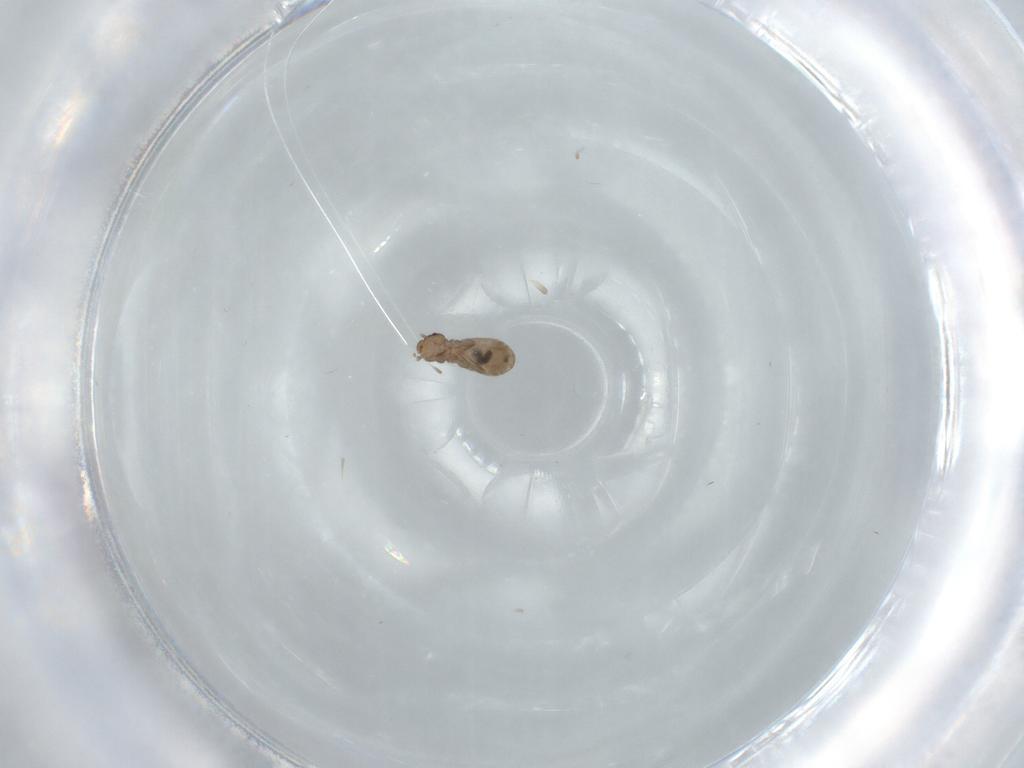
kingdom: Animalia
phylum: Arthropoda
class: Insecta
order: Psocodea
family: Liposcelididae
